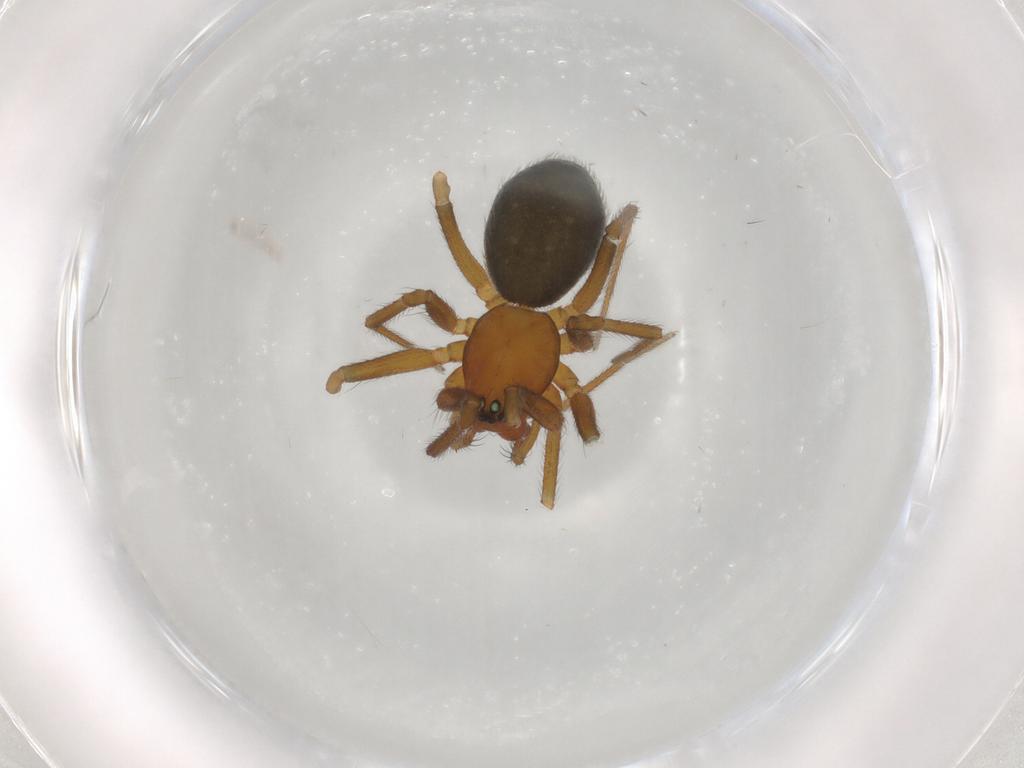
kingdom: Animalia
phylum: Arthropoda
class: Arachnida
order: Araneae
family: Linyphiidae
